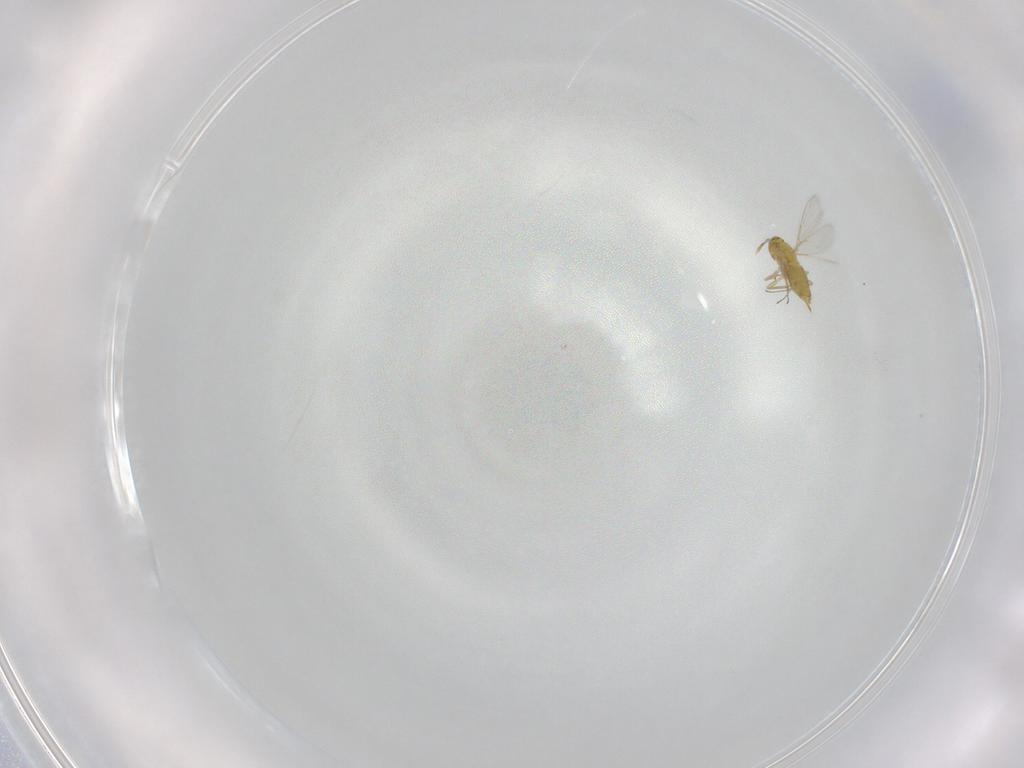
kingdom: Animalia
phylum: Arthropoda
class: Insecta
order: Hymenoptera
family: Aphelinidae
